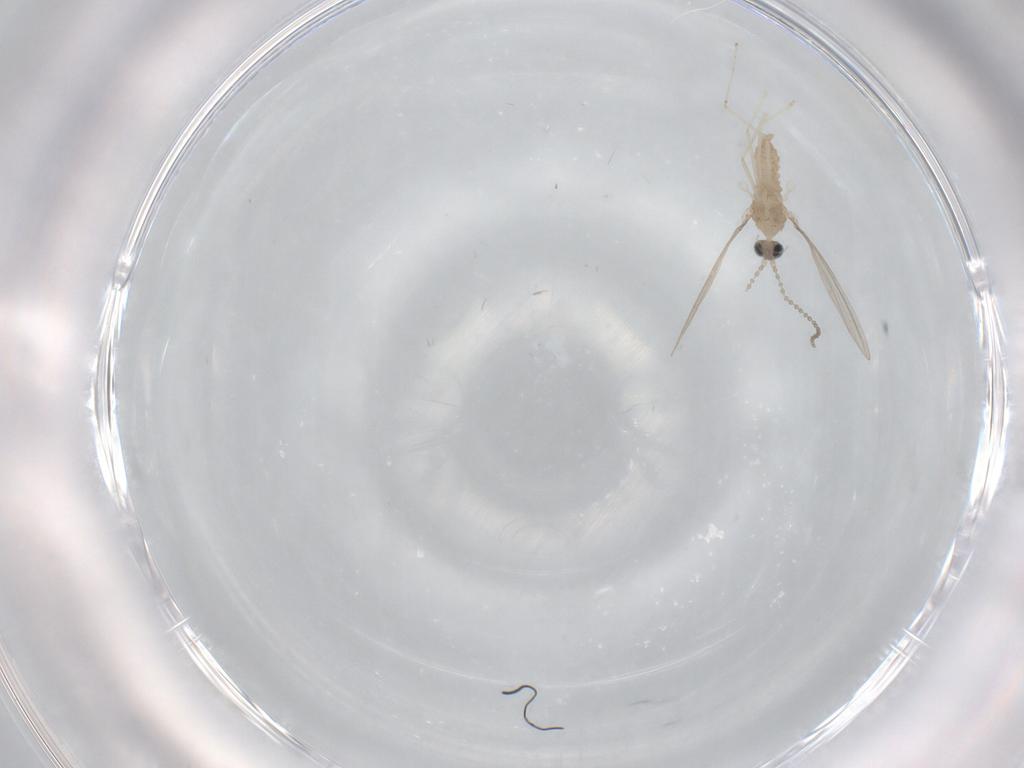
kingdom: Animalia
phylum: Arthropoda
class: Insecta
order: Diptera
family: Cecidomyiidae
